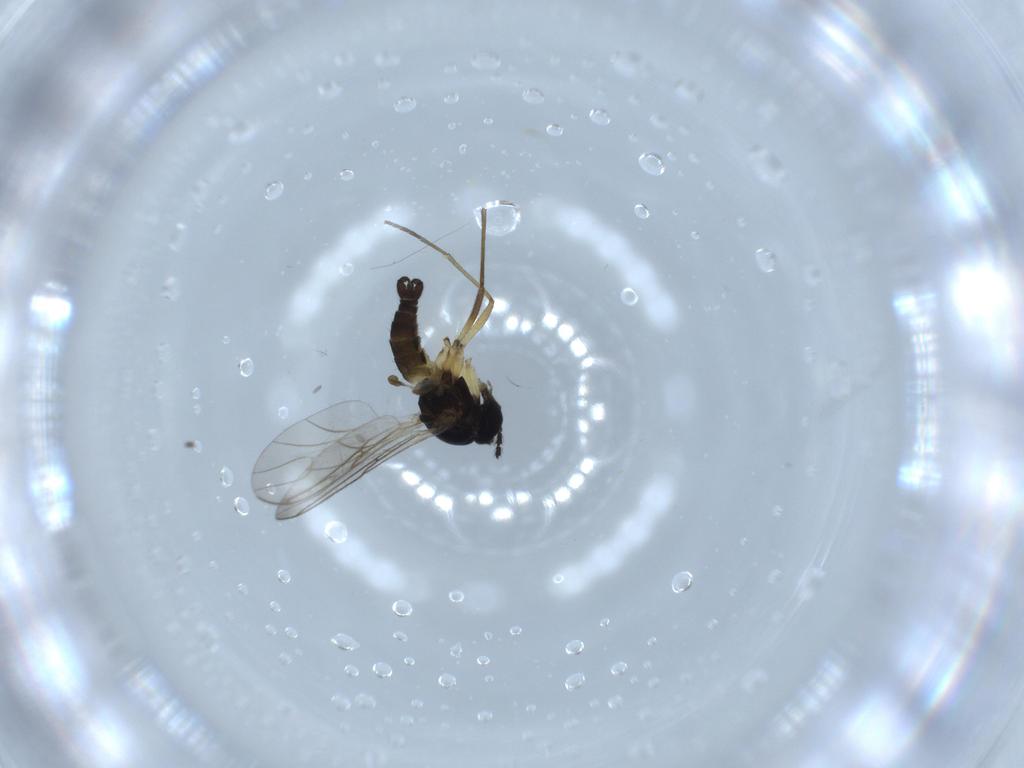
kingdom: Animalia
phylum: Arthropoda
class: Insecta
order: Diptera
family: Sciaridae
